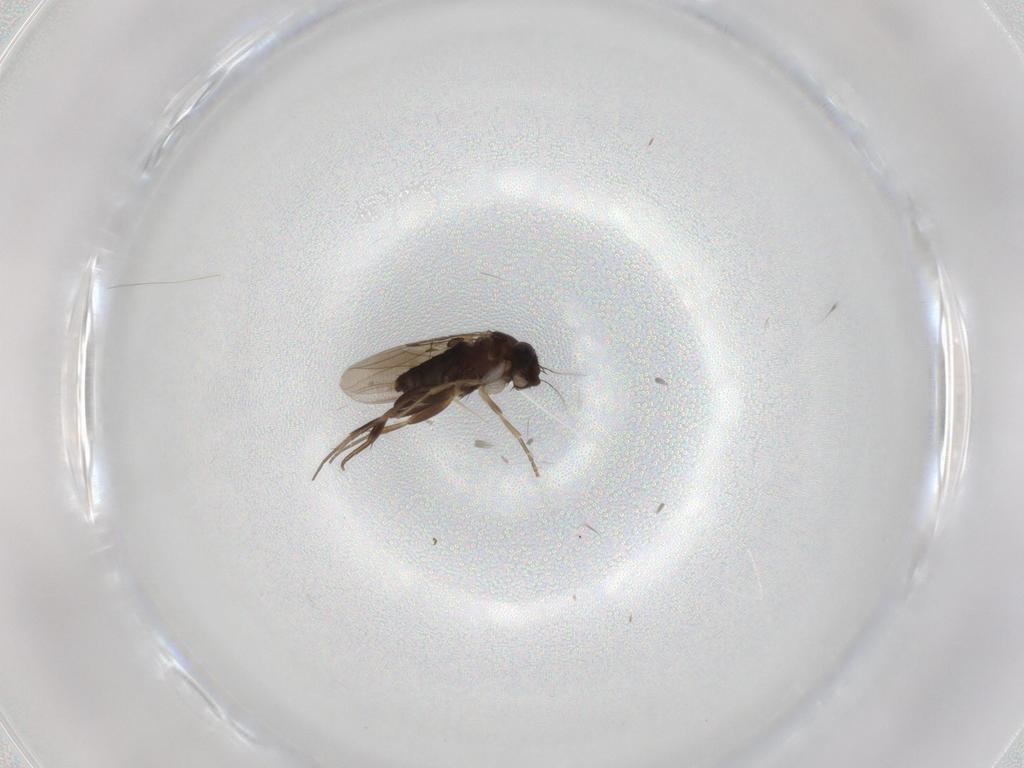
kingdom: Animalia
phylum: Arthropoda
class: Insecta
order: Diptera
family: Phoridae
